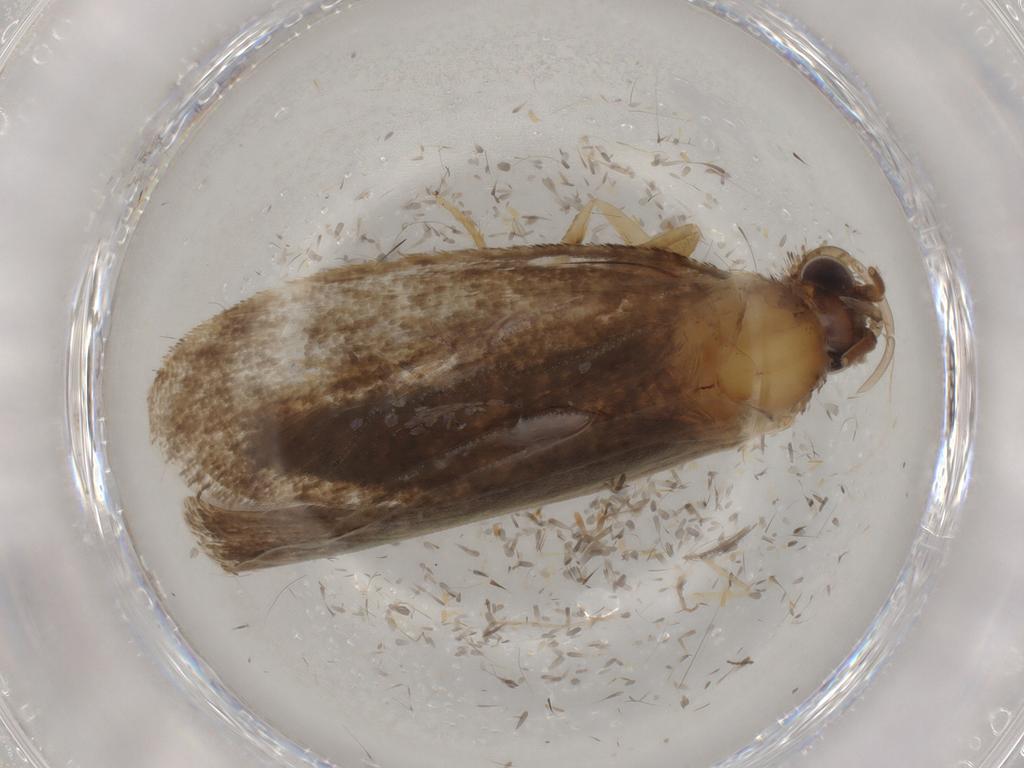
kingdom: Animalia
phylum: Arthropoda
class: Insecta
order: Lepidoptera
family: Tineidae
